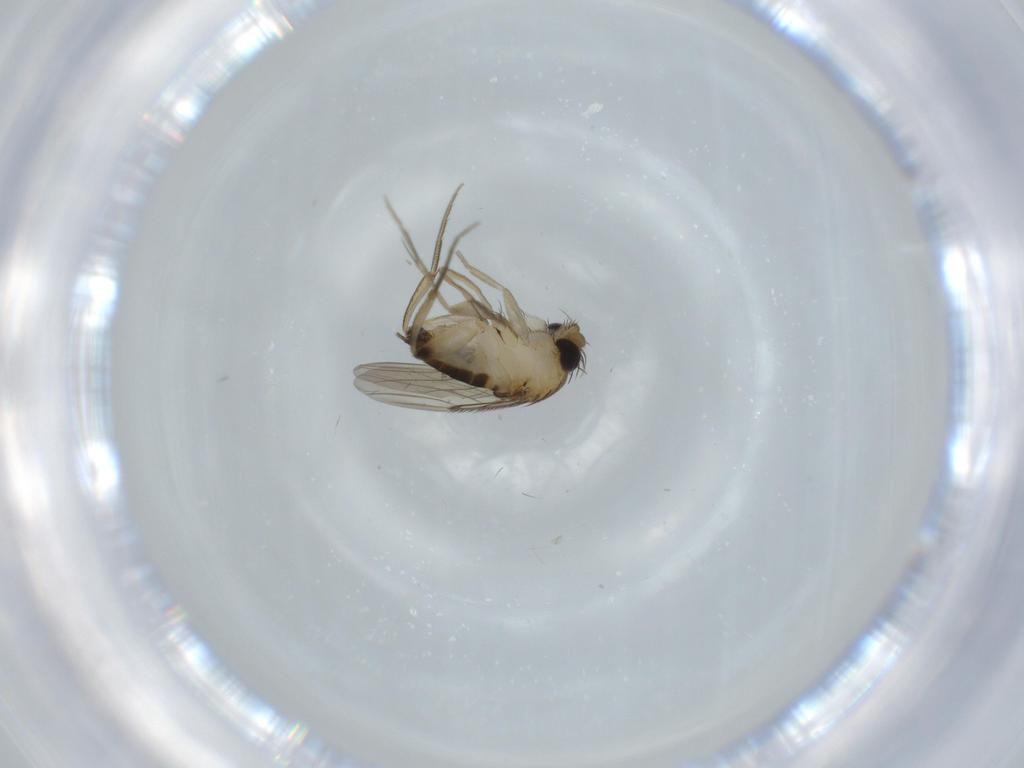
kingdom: Animalia
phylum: Arthropoda
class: Insecta
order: Diptera
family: Phoridae
